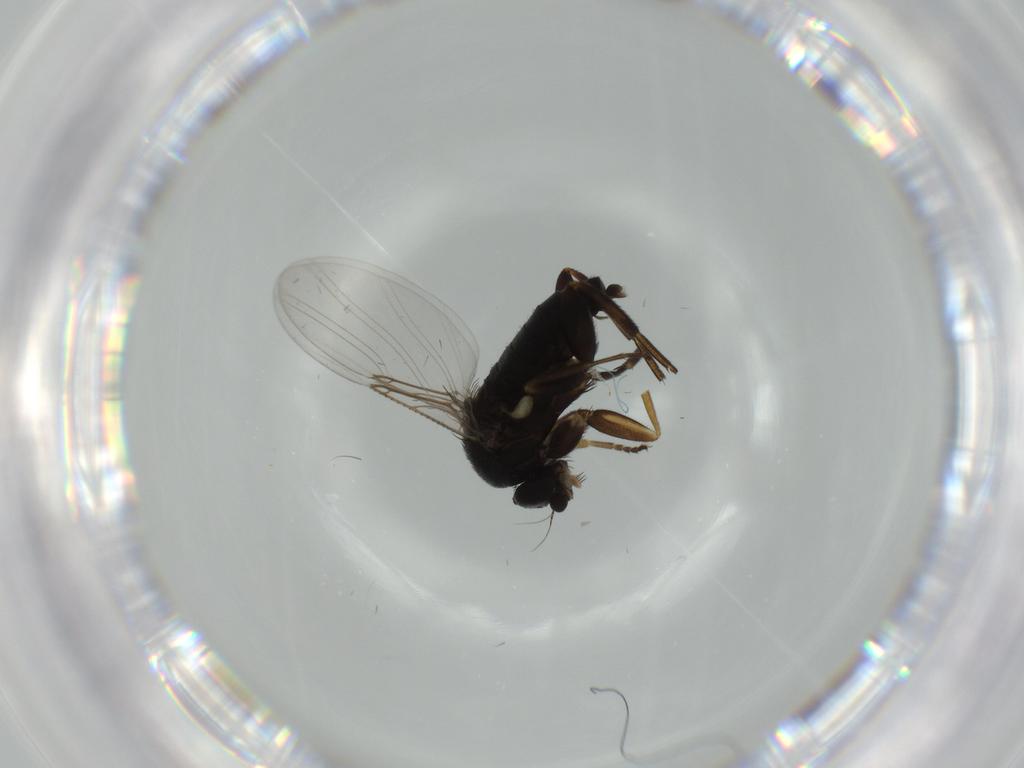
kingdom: Animalia
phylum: Arthropoda
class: Insecta
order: Diptera
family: Phoridae
